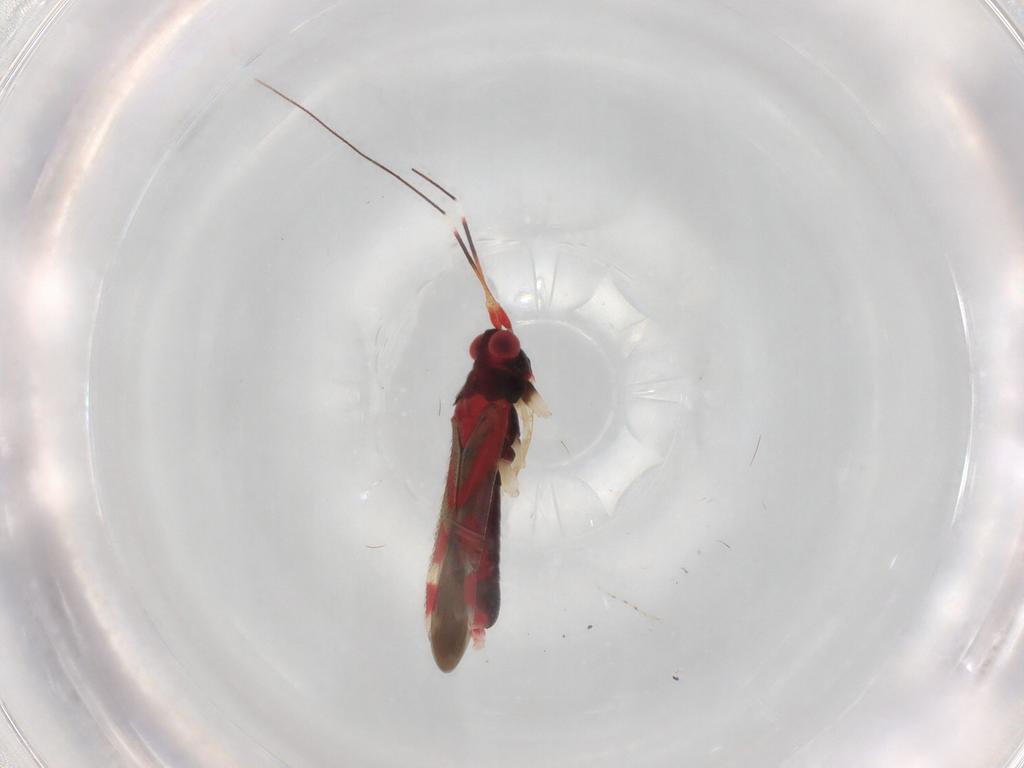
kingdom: Animalia
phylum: Arthropoda
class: Insecta
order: Hemiptera
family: Miridae
